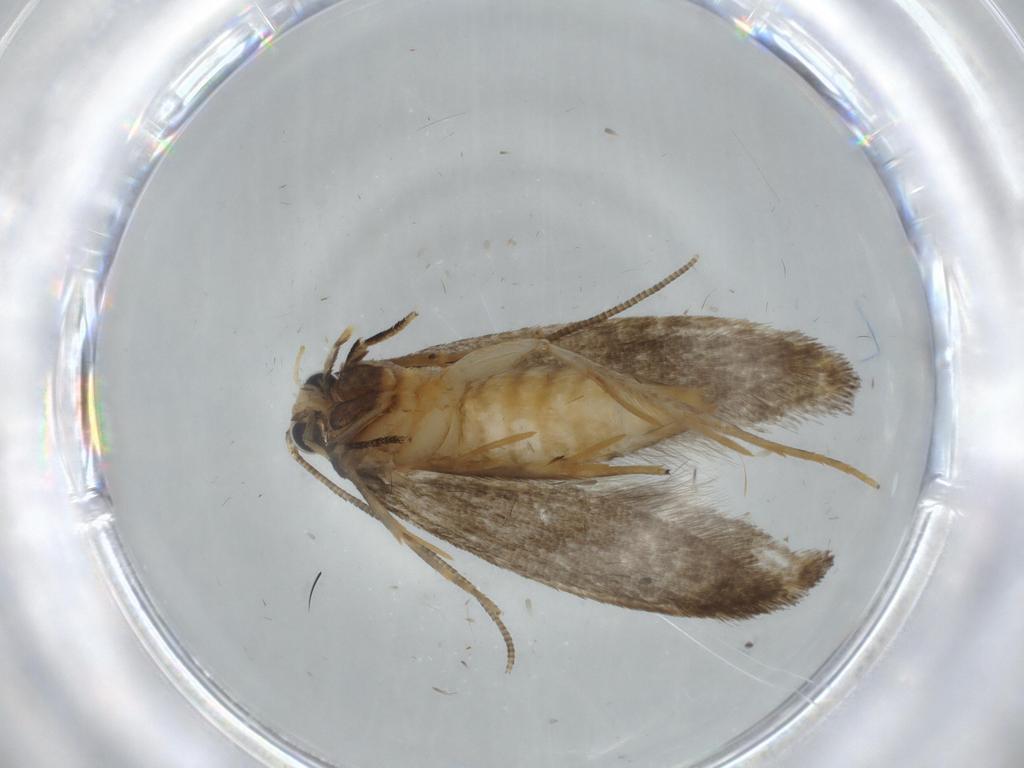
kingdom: Animalia
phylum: Arthropoda
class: Insecta
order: Lepidoptera
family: Tineidae
